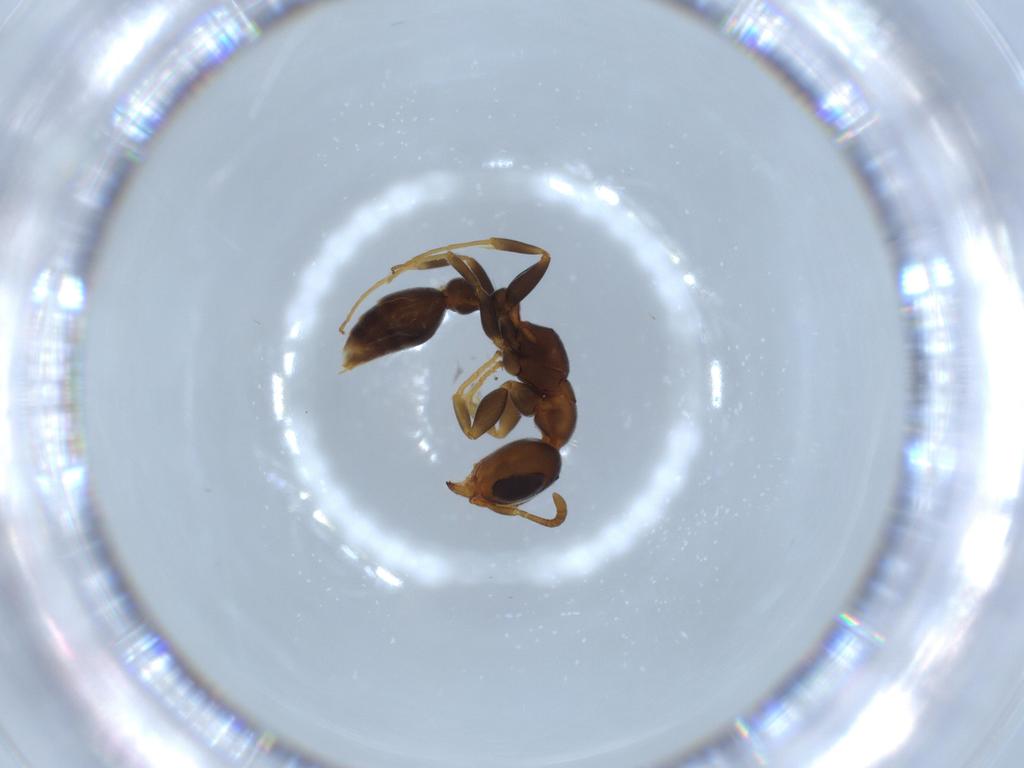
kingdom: Animalia
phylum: Arthropoda
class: Insecta
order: Hymenoptera
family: Formicidae
